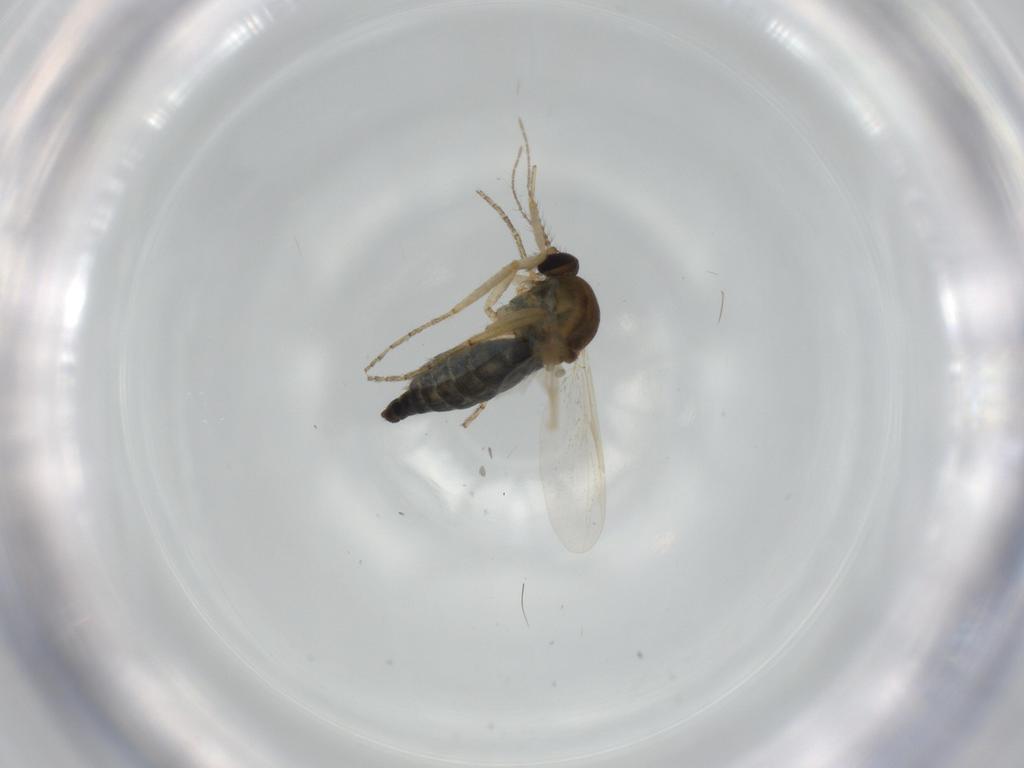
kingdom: Animalia
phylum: Arthropoda
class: Insecta
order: Diptera
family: Ceratopogonidae
